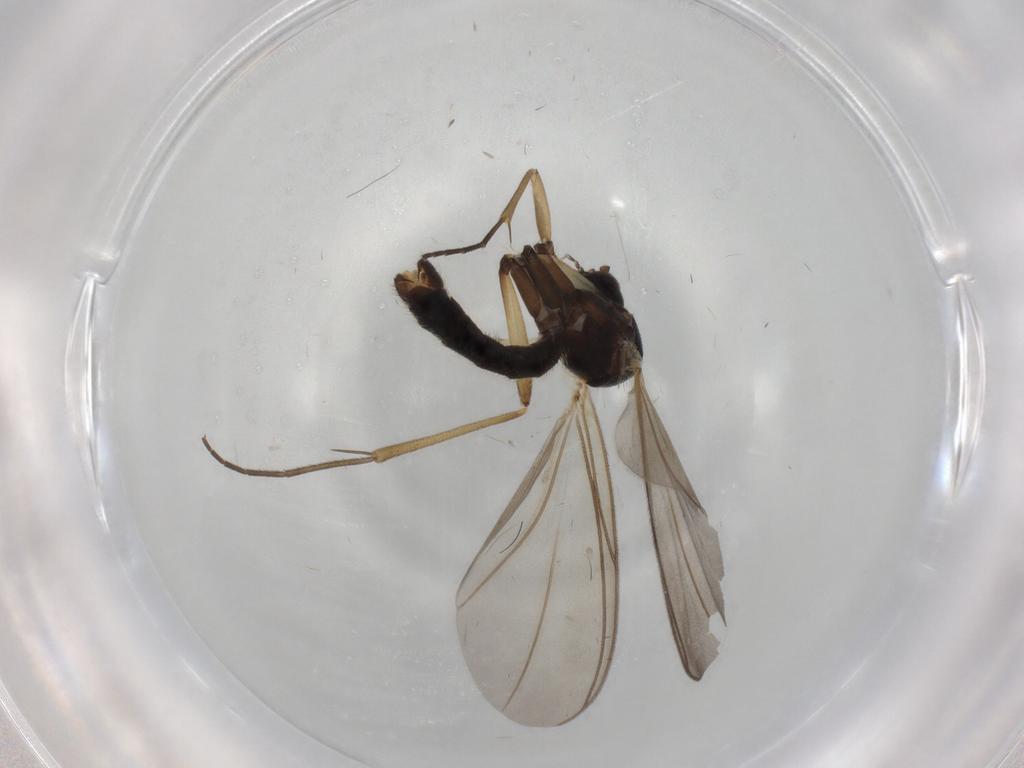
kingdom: Animalia
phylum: Arthropoda
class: Insecta
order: Diptera
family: Mycetophilidae
